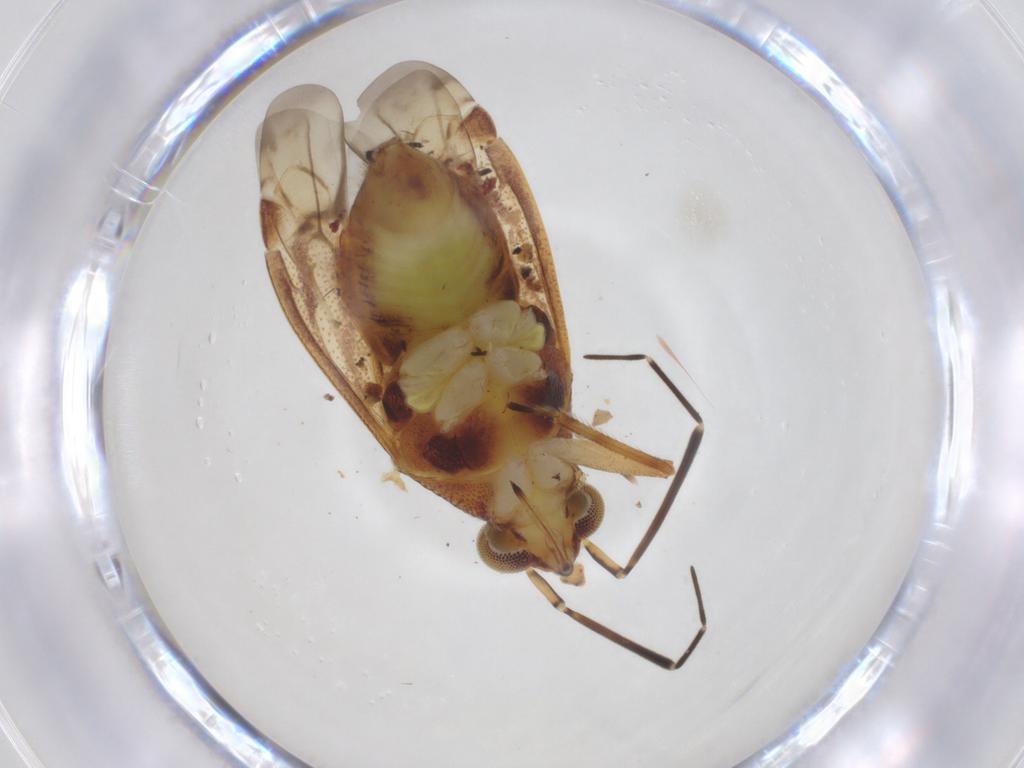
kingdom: Animalia
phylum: Arthropoda
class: Insecta
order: Hemiptera
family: Miridae
